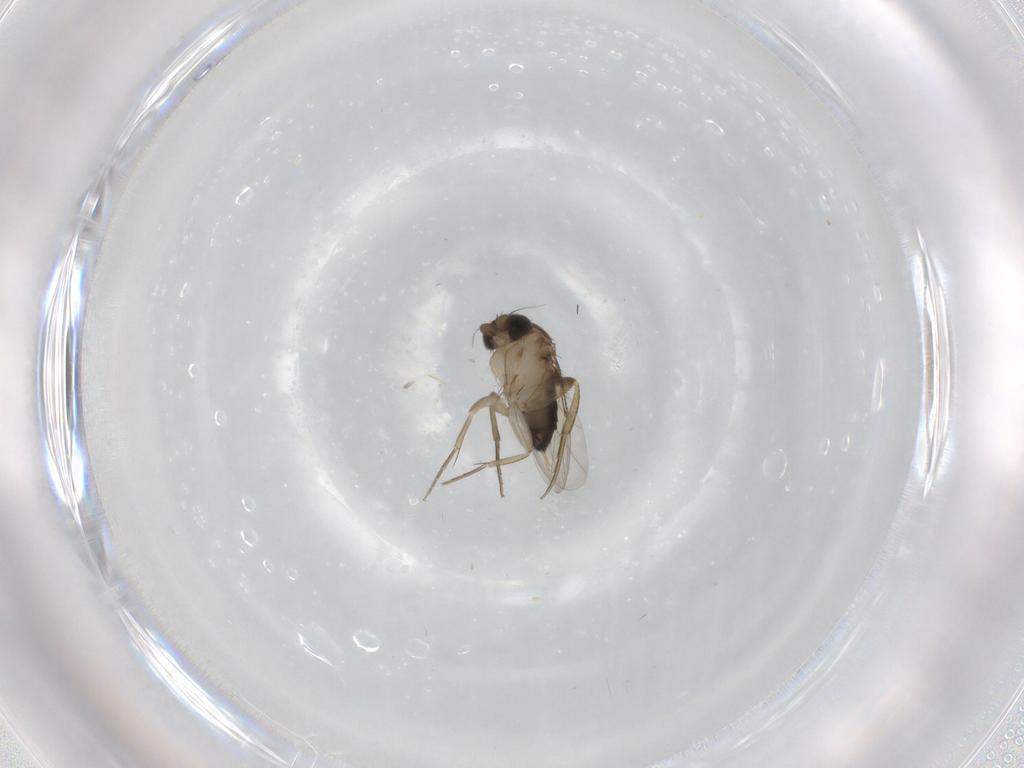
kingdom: Animalia
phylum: Arthropoda
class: Insecta
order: Diptera
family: Phoridae
